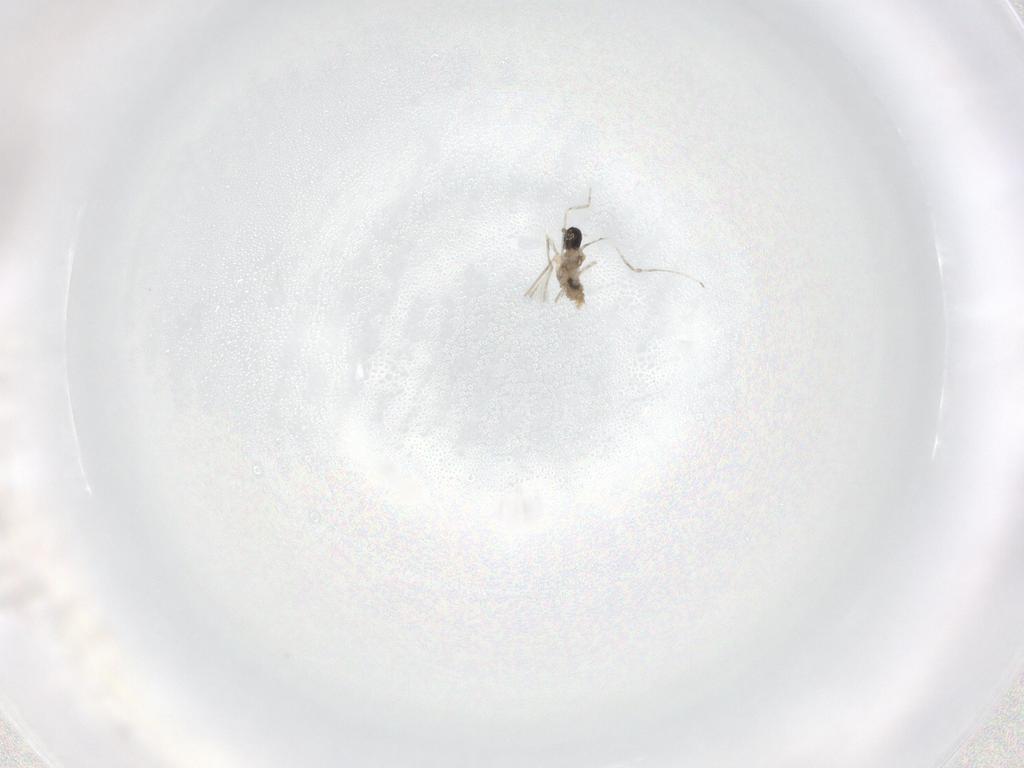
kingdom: Animalia
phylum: Arthropoda
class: Insecta
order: Diptera
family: Cecidomyiidae
